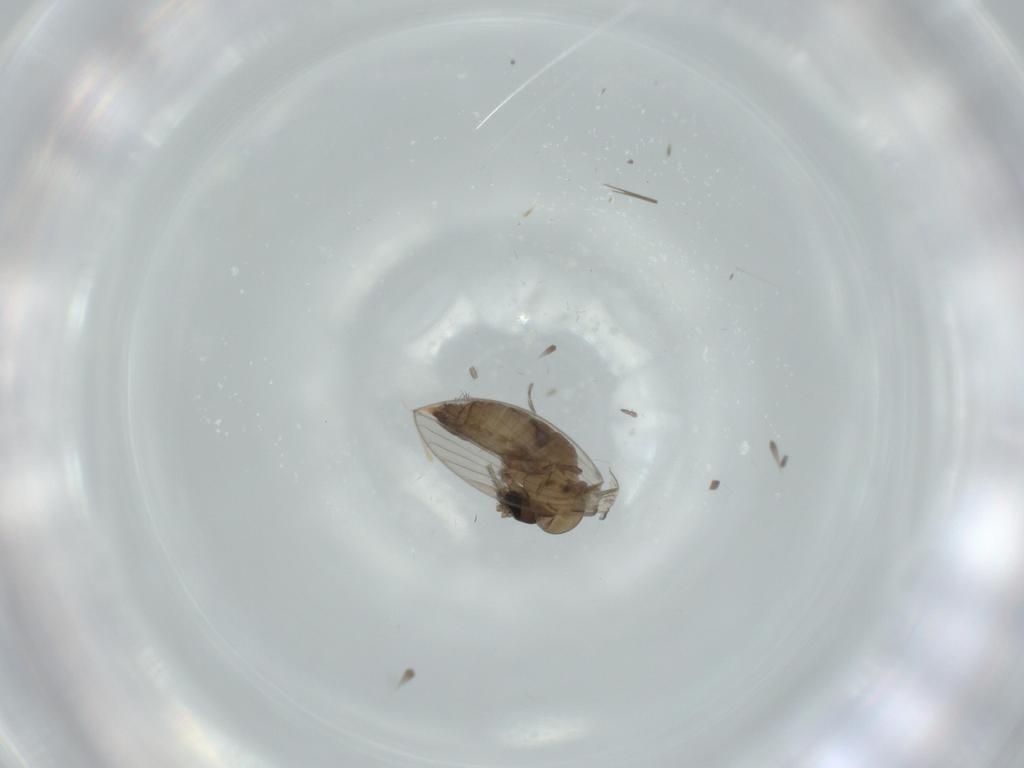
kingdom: Animalia
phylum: Arthropoda
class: Insecta
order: Diptera
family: Psychodidae
